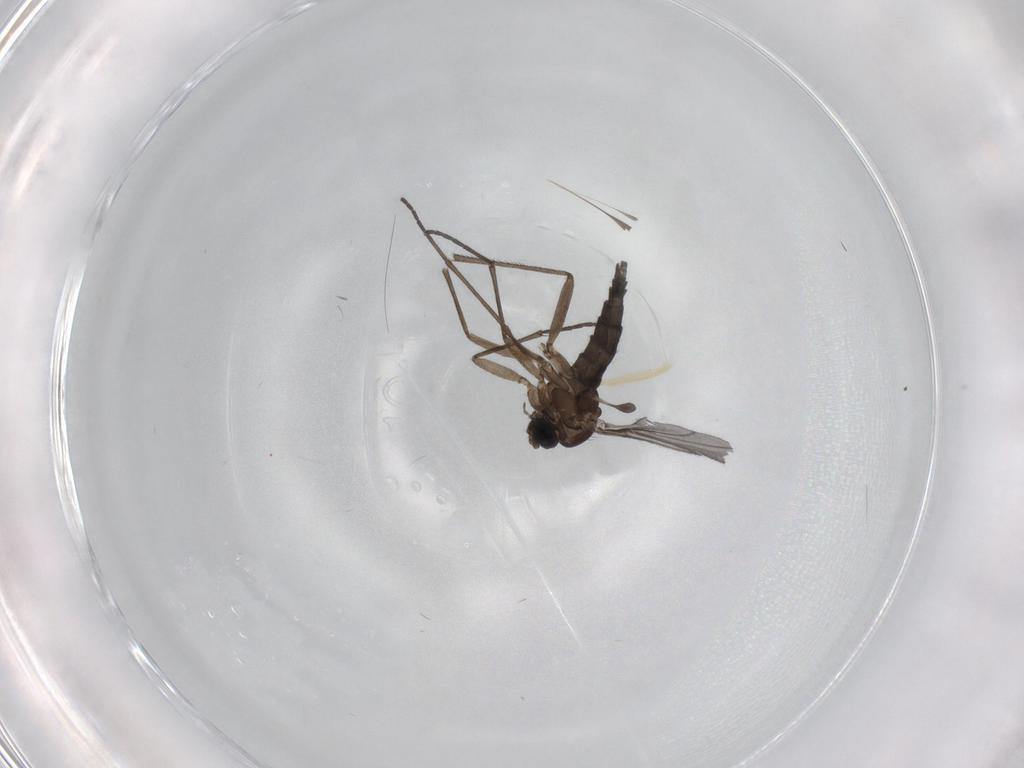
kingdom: Animalia
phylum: Arthropoda
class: Insecta
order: Diptera
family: Sciaridae
